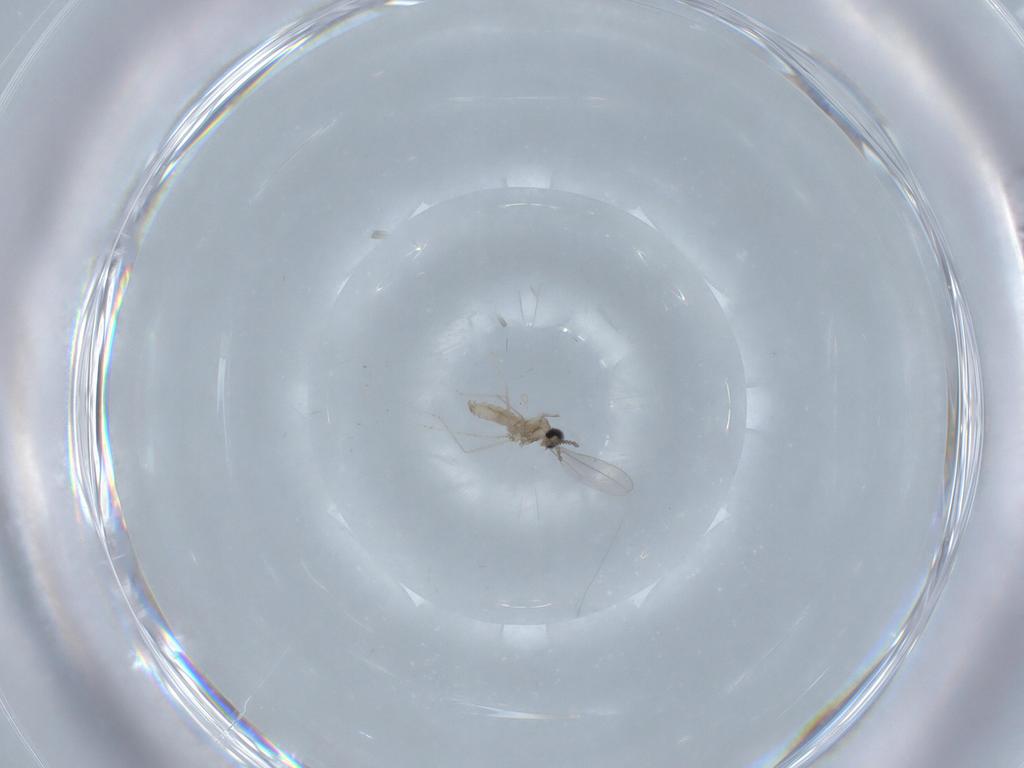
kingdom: Animalia
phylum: Arthropoda
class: Insecta
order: Diptera
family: Cecidomyiidae
